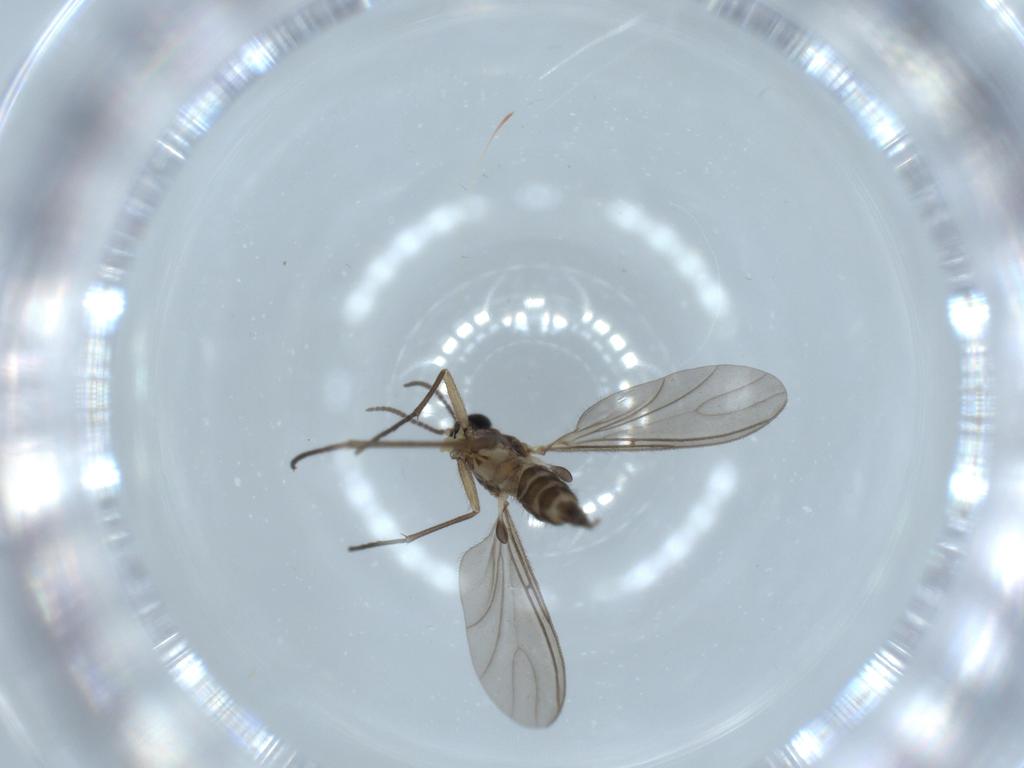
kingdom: Animalia
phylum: Arthropoda
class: Insecta
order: Diptera
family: Sciaridae
